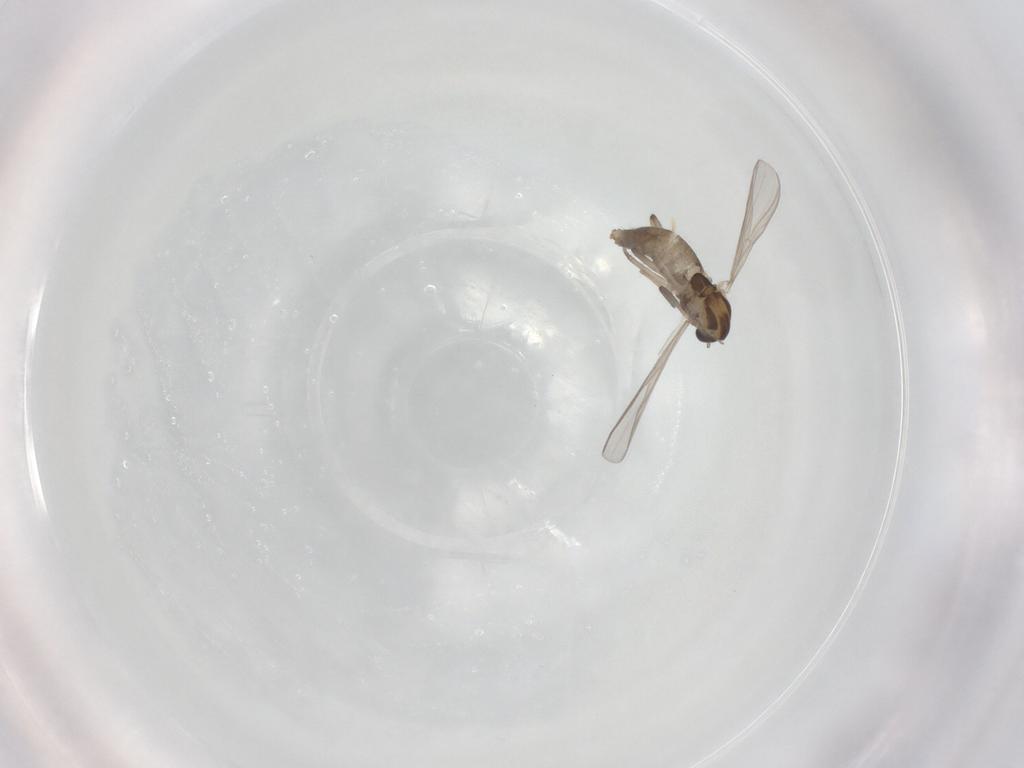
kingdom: Animalia
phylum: Arthropoda
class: Insecta
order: Diptera
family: Chironomidae
